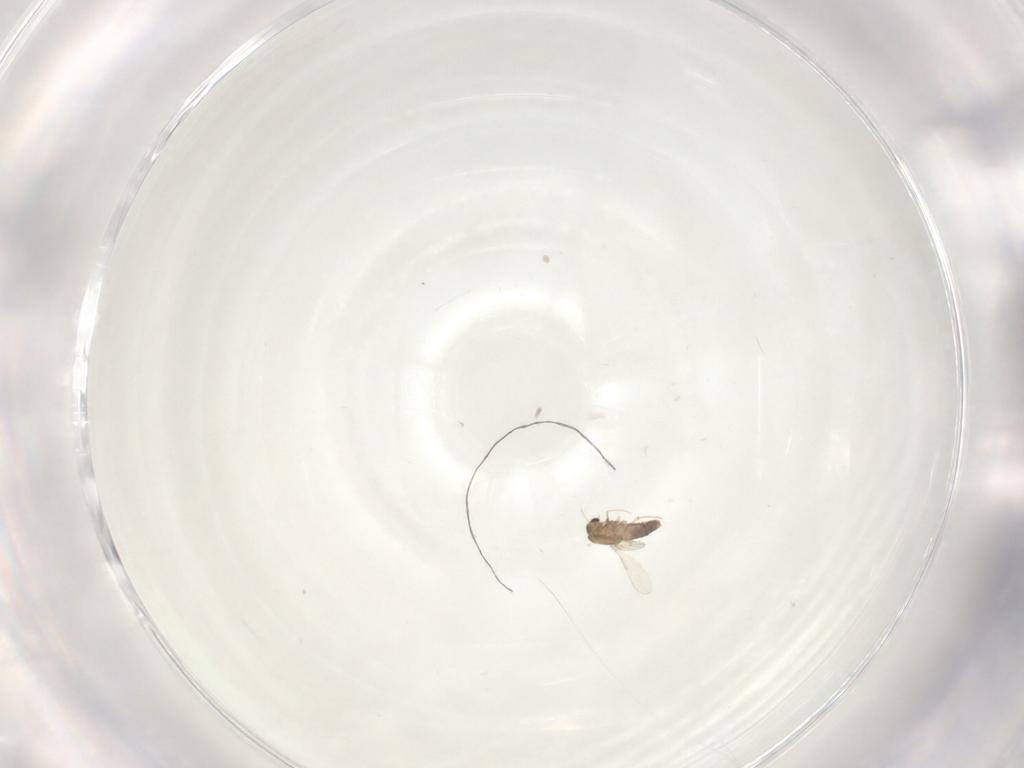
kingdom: Animalia
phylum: Arthropoda
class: Insecta
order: Diptera
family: Chironomidae
